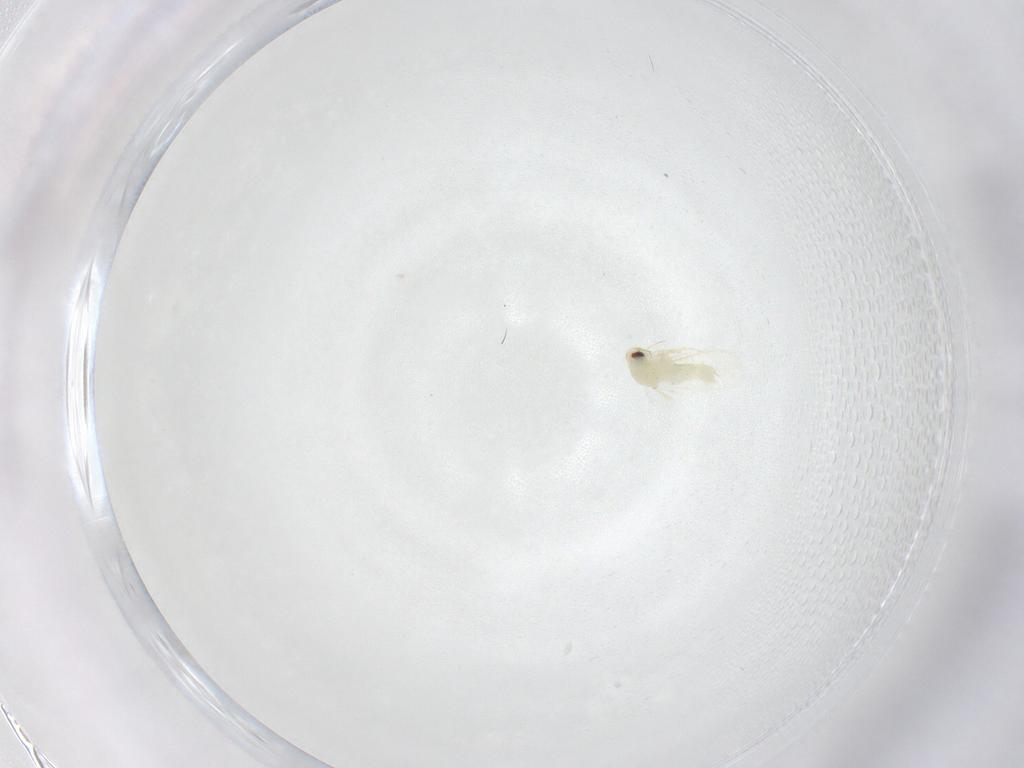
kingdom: Animalia
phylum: Arthropoda
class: Insecta
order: Hemiptera
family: Aleyrodidae
